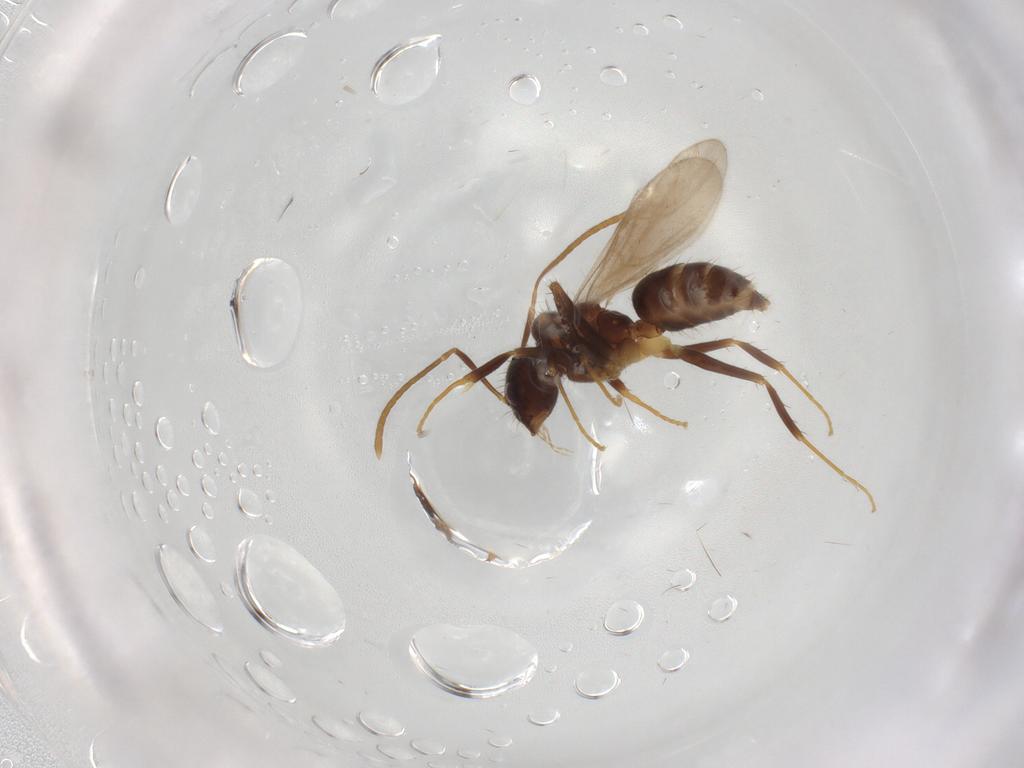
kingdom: Animalia
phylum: Arthropoda
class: Insecta
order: Hymenoptera
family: Formicidae
